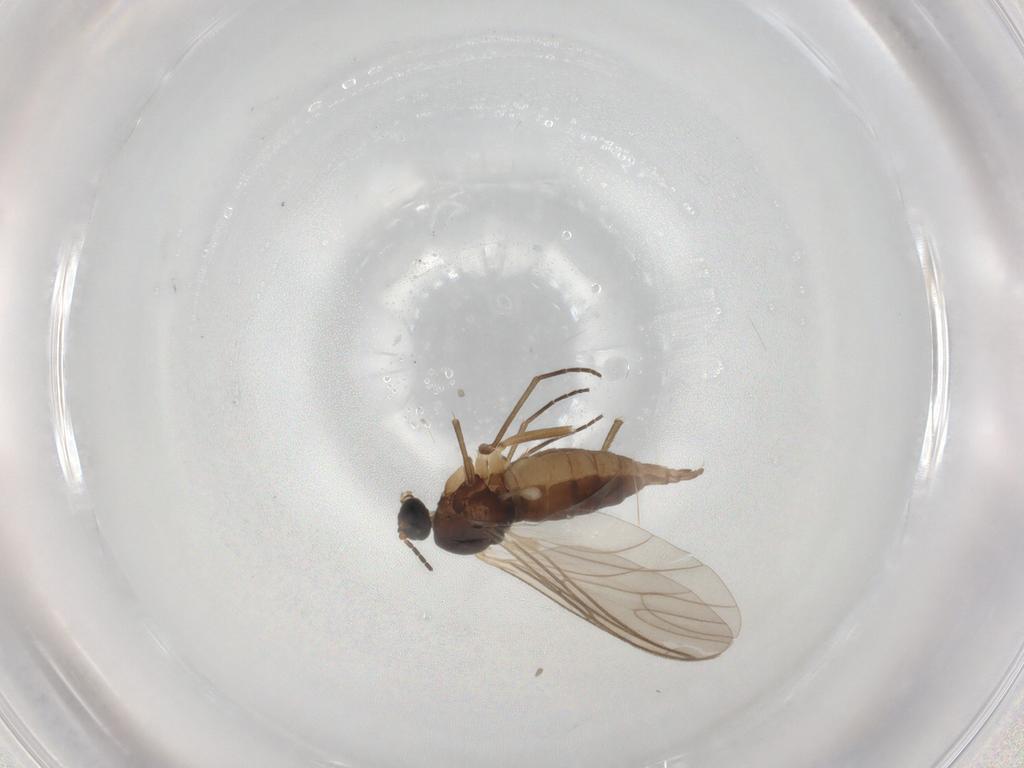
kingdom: Animalia
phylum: Arthropoda
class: Insecta
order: Diptera
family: Sciaridae
